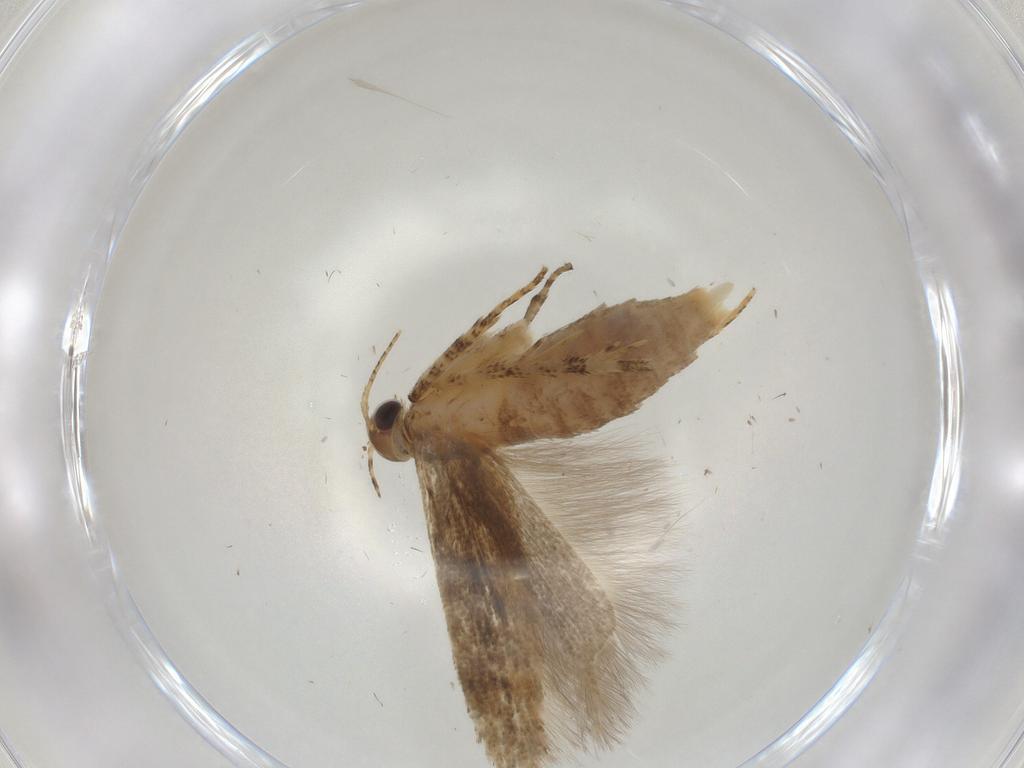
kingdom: Animalia
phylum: Arthropoda
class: Insecta
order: Lepidoptera
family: Gelechiidae
